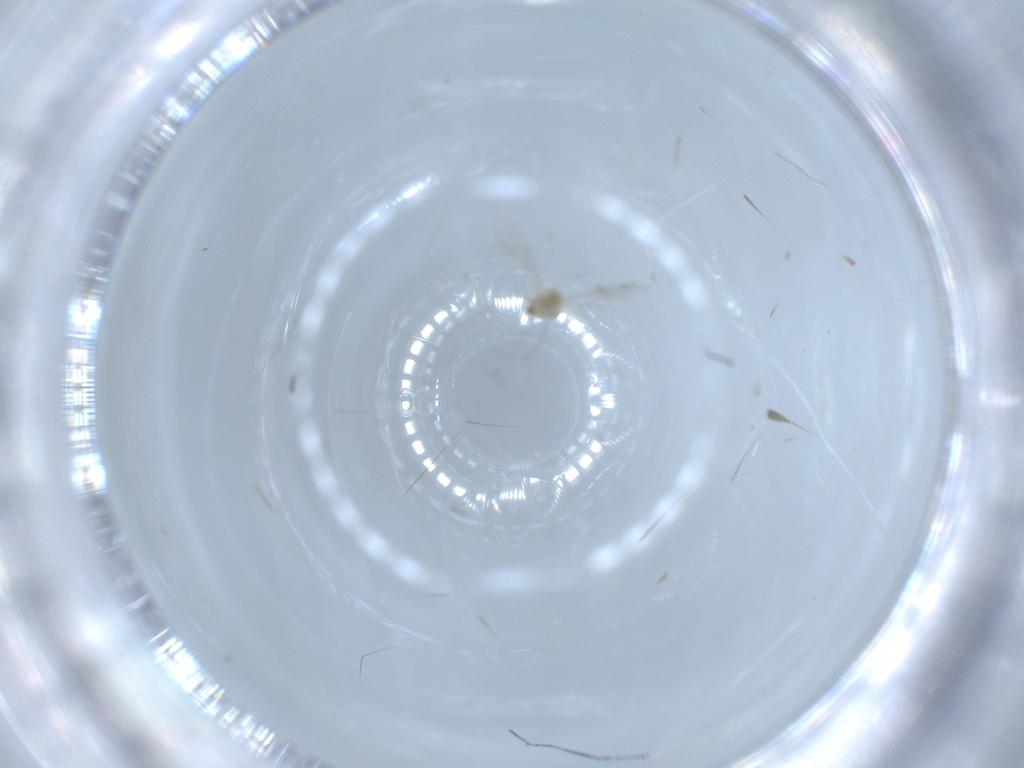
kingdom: Animalia
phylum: Arthropoda
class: Insecta
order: Diptera
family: Cecidomyiidae
